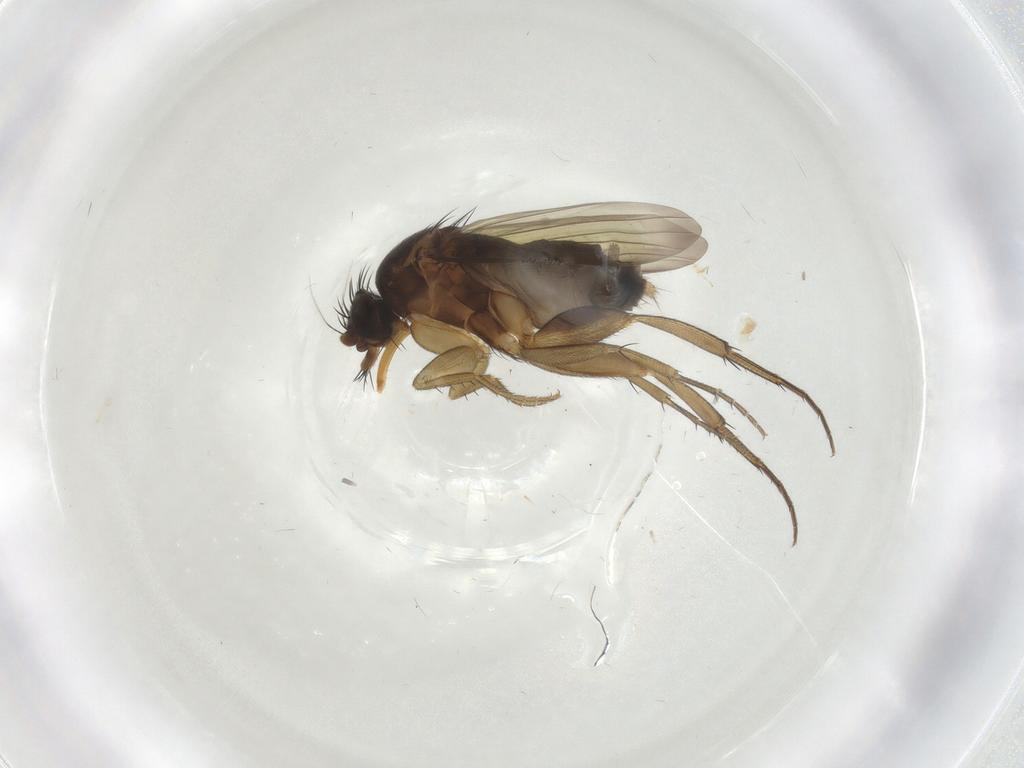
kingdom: Animalia
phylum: Arthropoda
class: Insecta
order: Diptera
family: Phoridae
